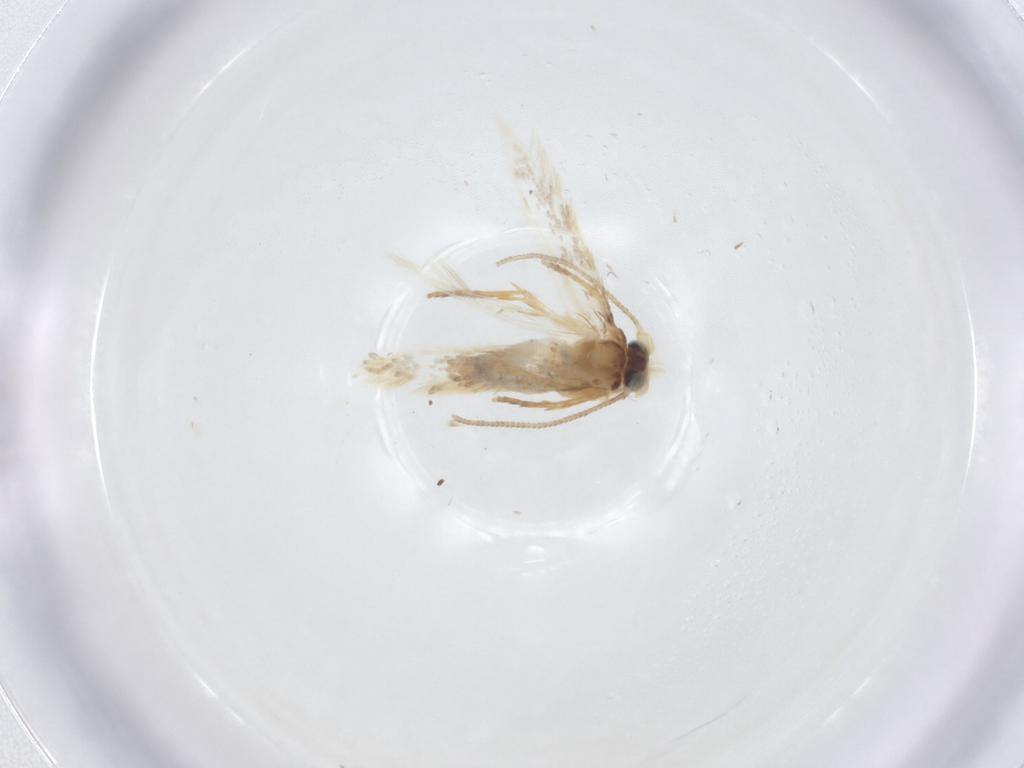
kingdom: Animalia
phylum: Arthropoda
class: Insecta
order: Lepidoptera
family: Nepticulidae
